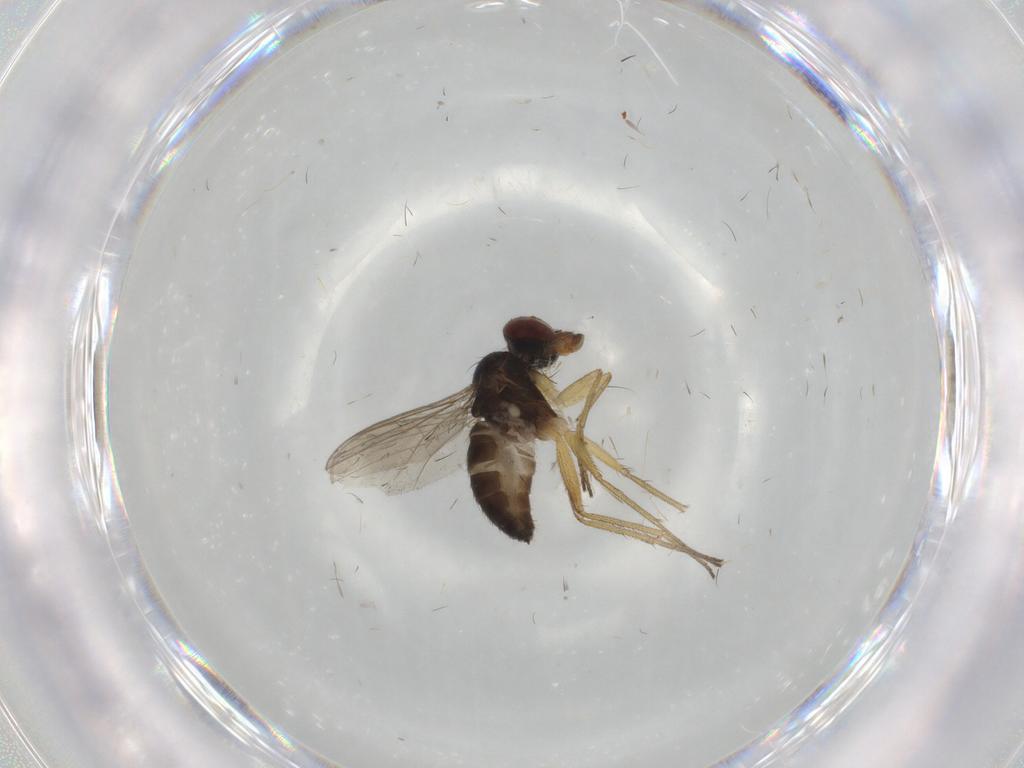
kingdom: Animalia
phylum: Arthropoda
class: Insecta
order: Diptera
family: Dolichopodidae
